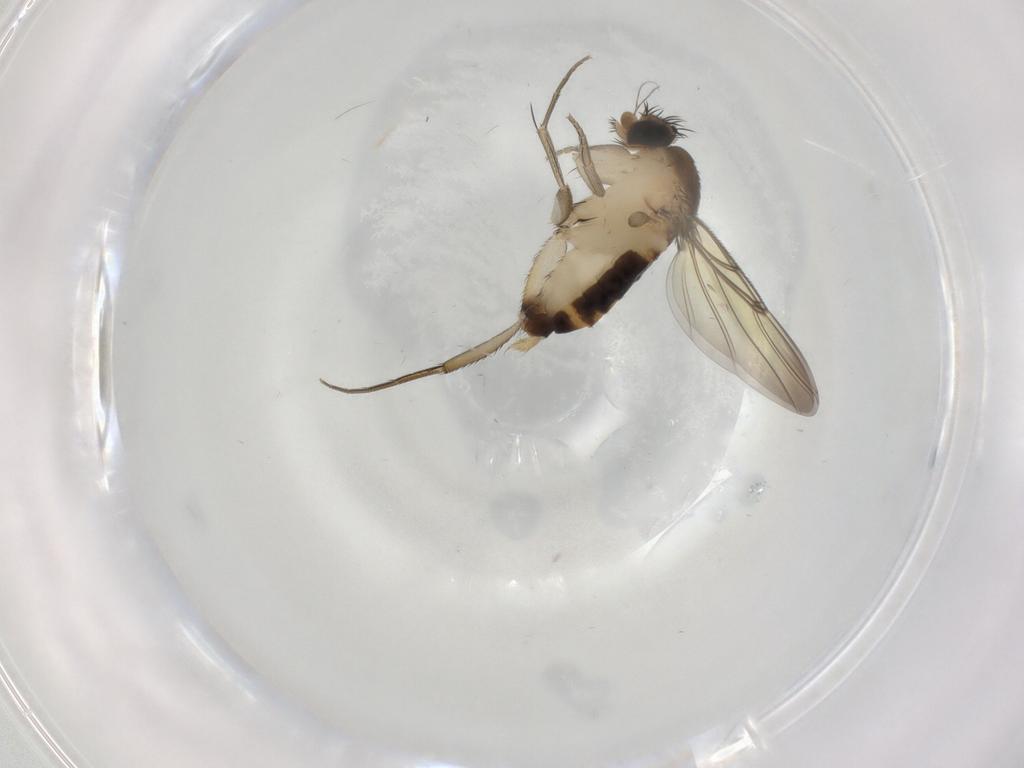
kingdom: Animalia
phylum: Arthropoda
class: Insecta
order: Diptera
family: Phoridae
